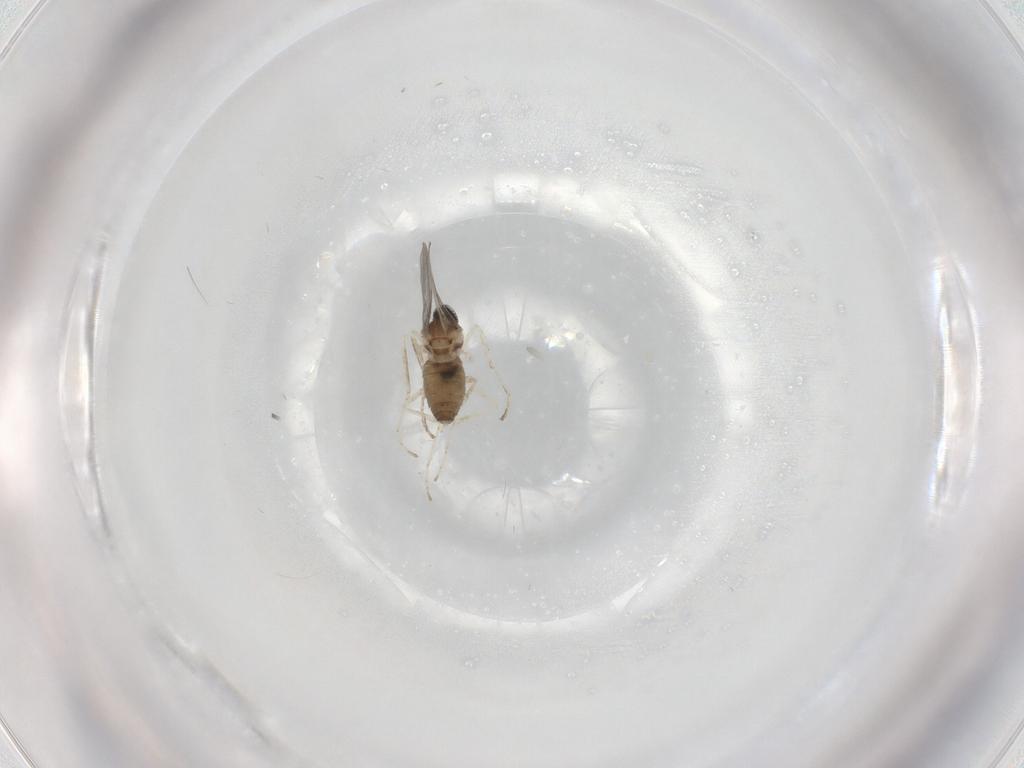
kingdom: Animalia
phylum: Arthropoda
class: Insecta
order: Diptera
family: Cecidomyiidae
